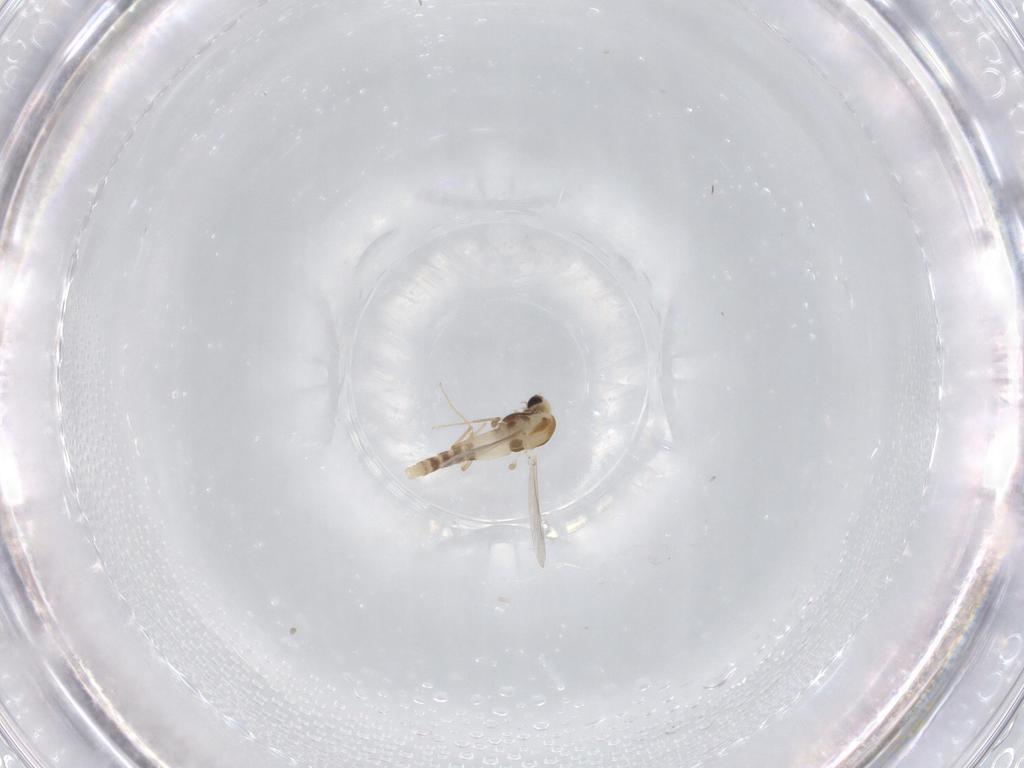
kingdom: Animalia
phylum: Arthropoda
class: Insecta
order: Diptera
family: Chironomidae
